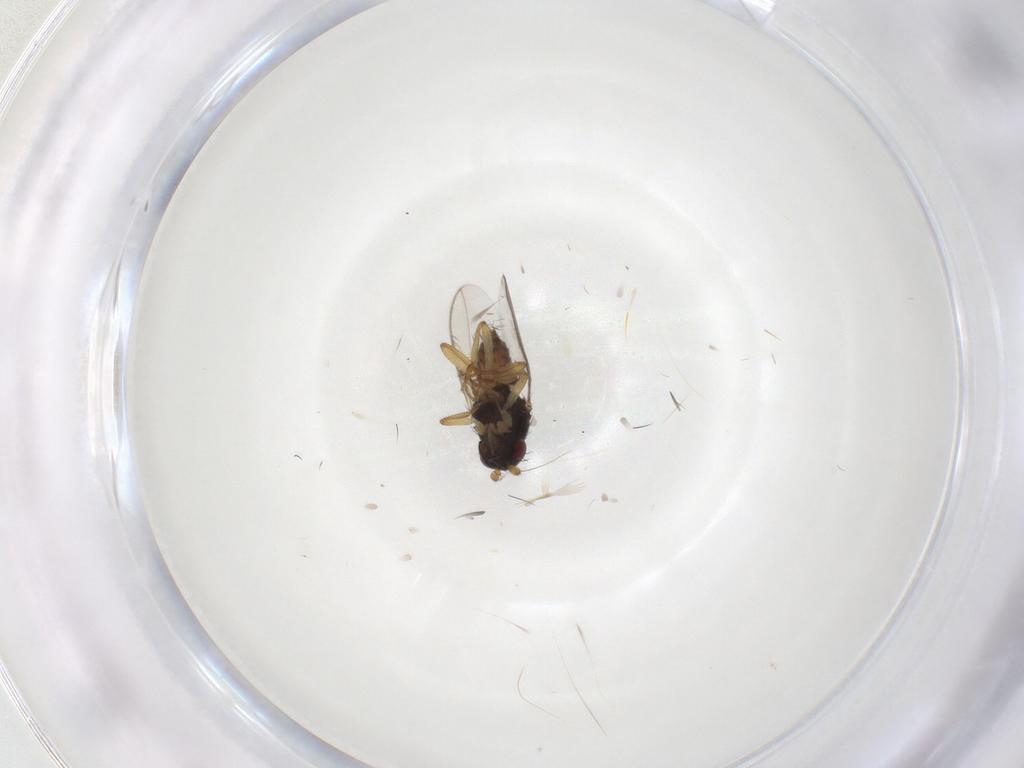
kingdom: Animalia
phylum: Arthropoda
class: Insecta
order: Diptera
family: Sphaeroceridae
